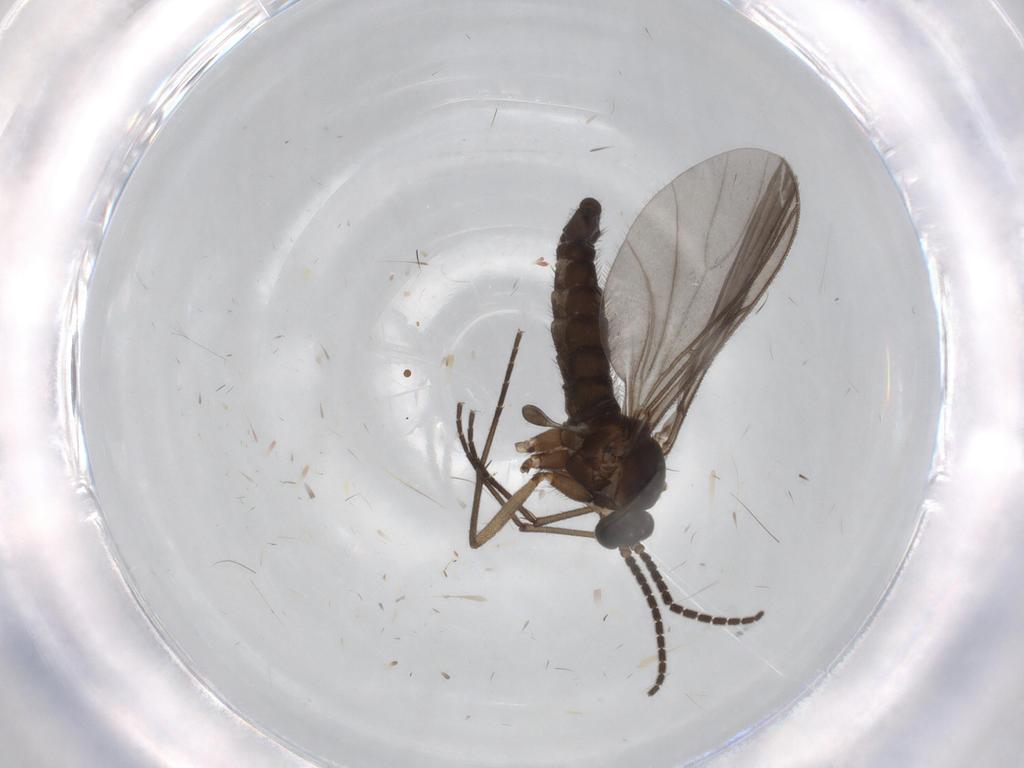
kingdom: Animalia
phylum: Arthropoda
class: Insecta
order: Diptera
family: Sciaridae
